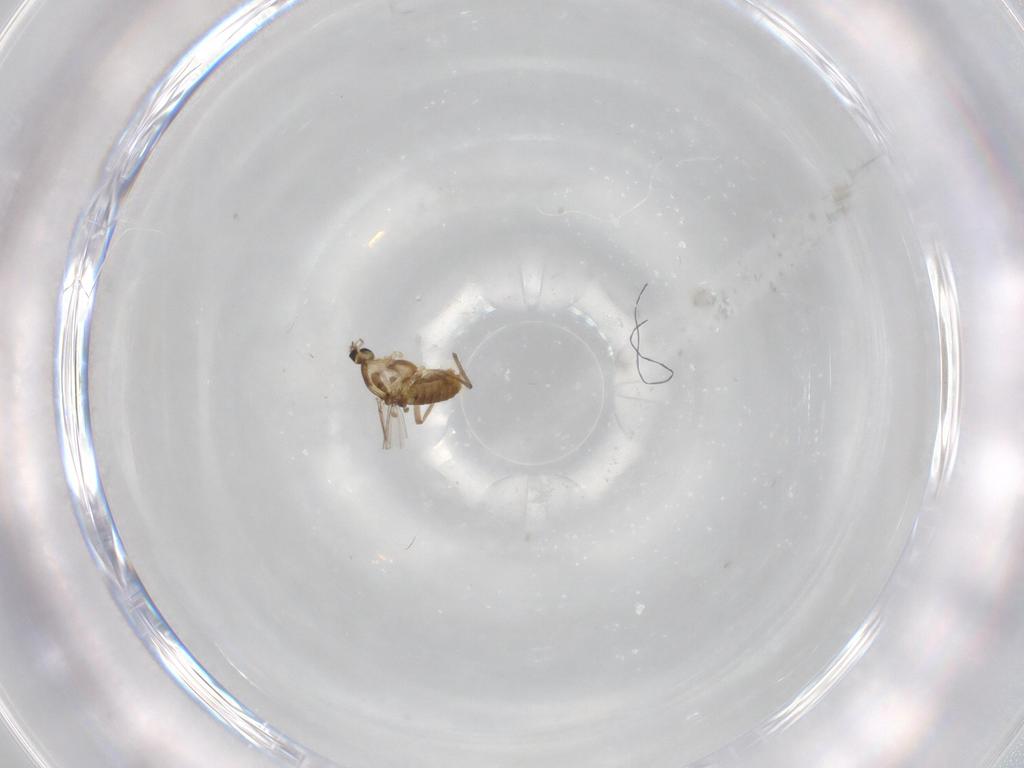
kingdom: Animalia
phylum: Arthropoda
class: Insecta
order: Diptera
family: Chironomidae
